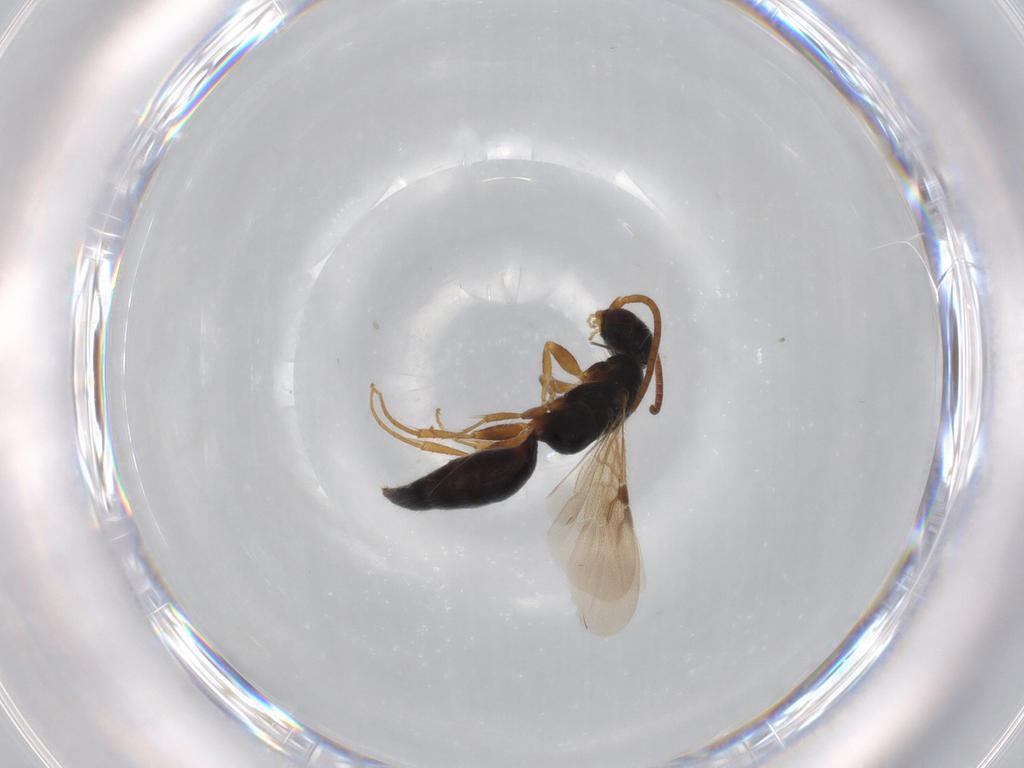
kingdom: Animalia
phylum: Arthropoda
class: Insecta
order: Hymenoptera
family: Bethylidae
